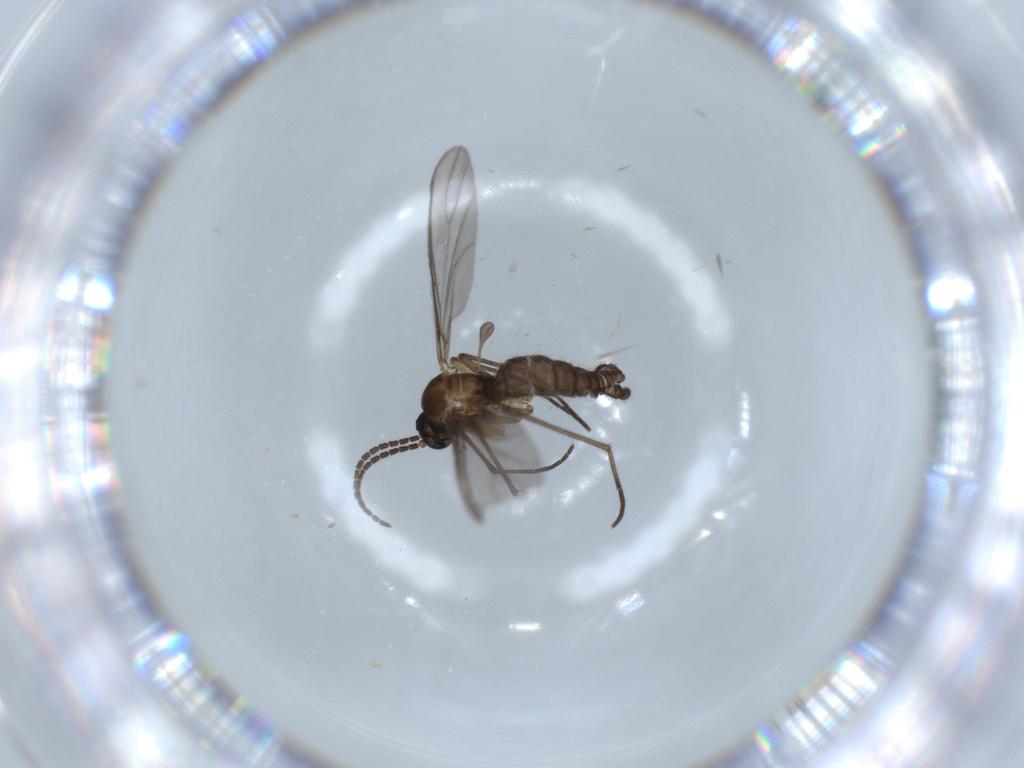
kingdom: Animalia
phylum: Arthropoda
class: Insecta
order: Diptera
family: Sciaridae
